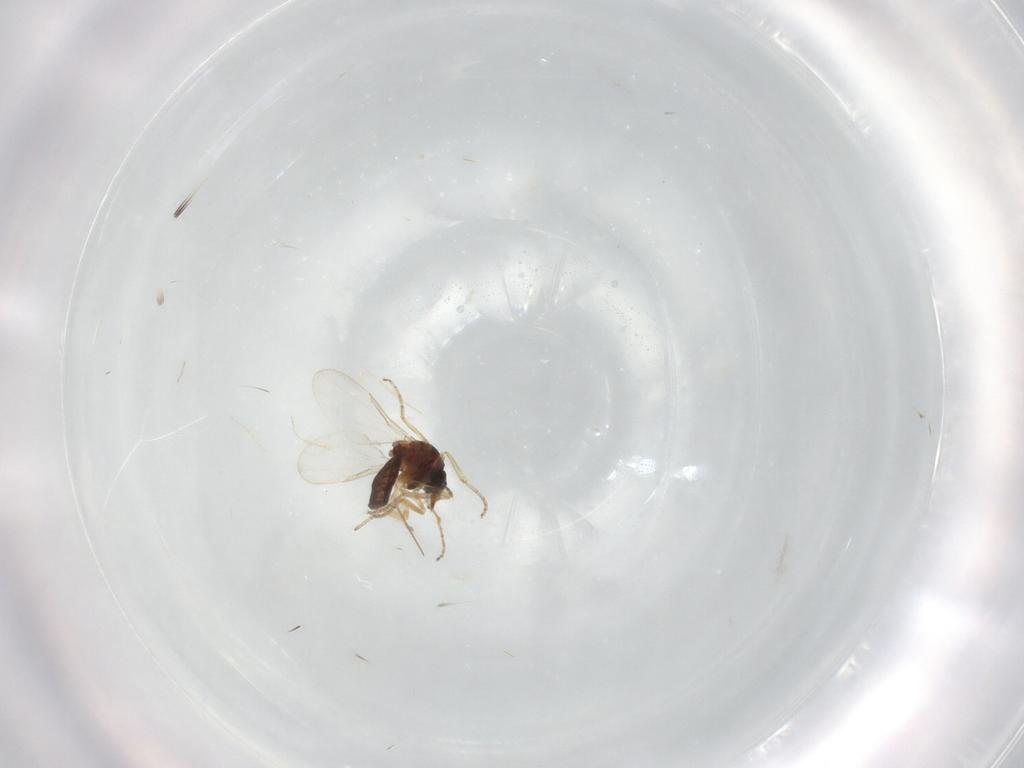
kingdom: Animalia
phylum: Arthropoda
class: Insecta
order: Diptera
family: Ceratopogonidae
